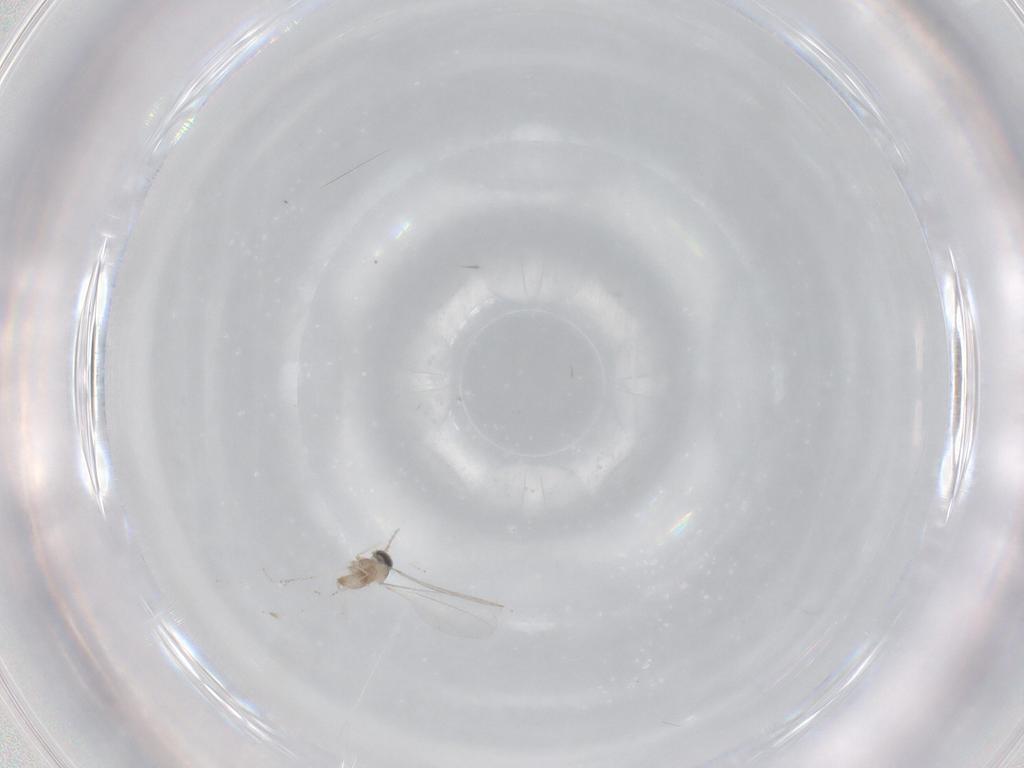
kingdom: Animalia
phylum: Arthropoda
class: Insecta
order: Diptera
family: Cecidomyiidae
